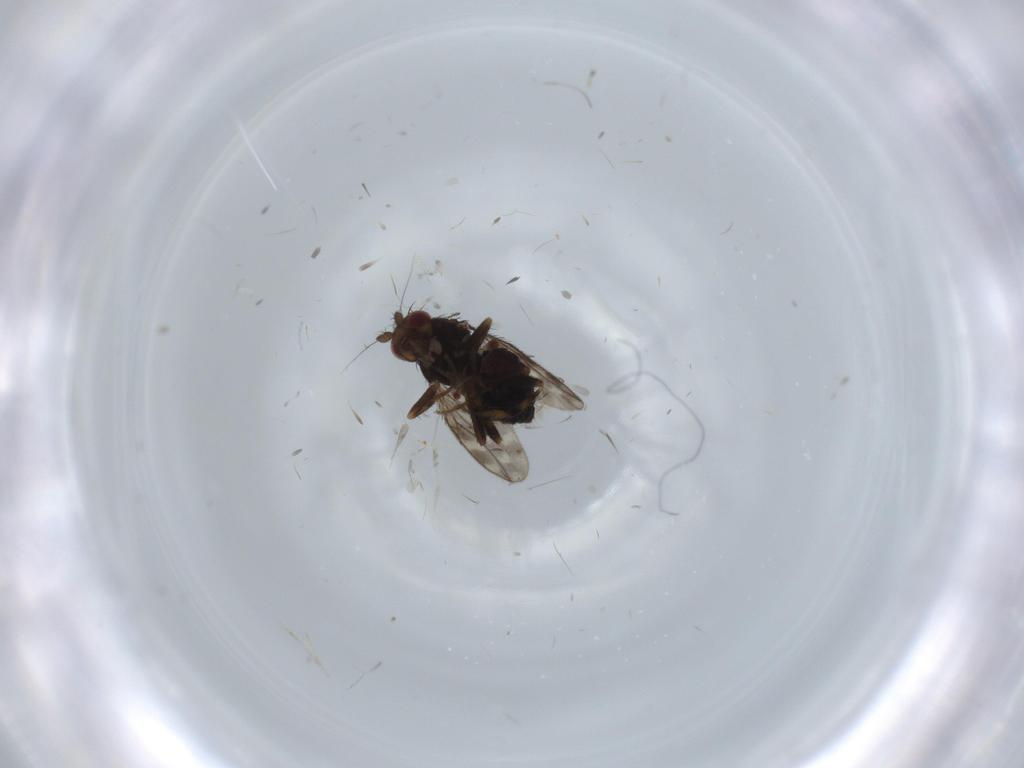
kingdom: Animalia
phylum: Arthropoda
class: Insecta
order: Diptera
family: Sphaeroceridae
